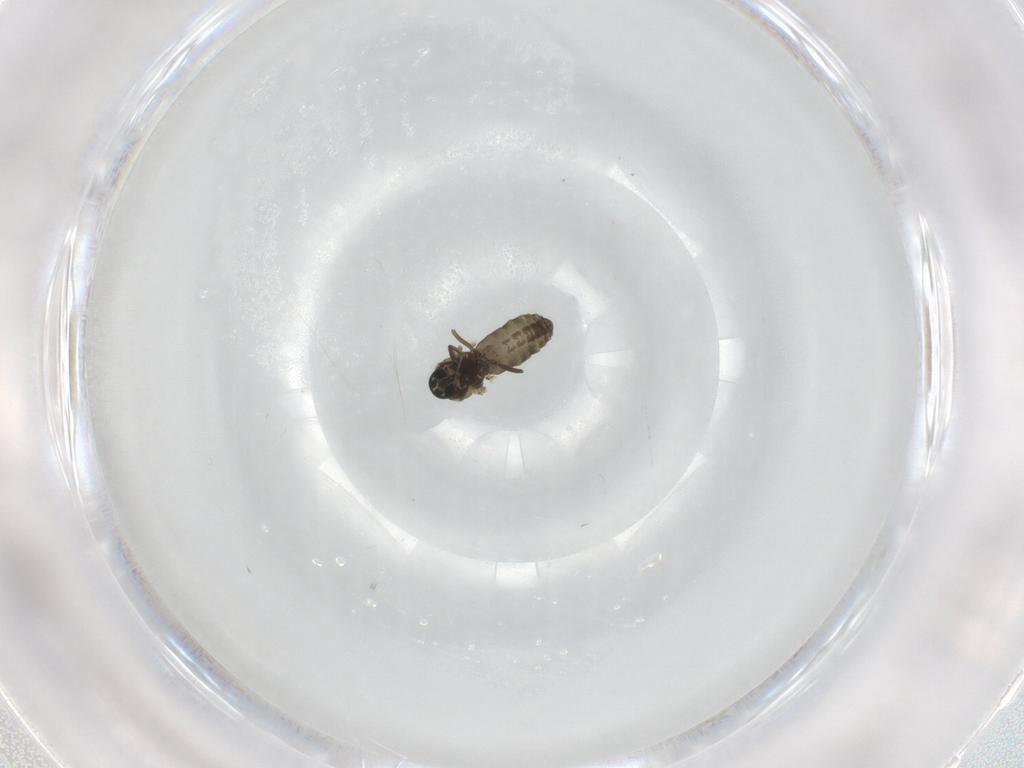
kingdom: Animalia
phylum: Arthropoda
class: Insecta
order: Diptera
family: Ceratopogonidae
